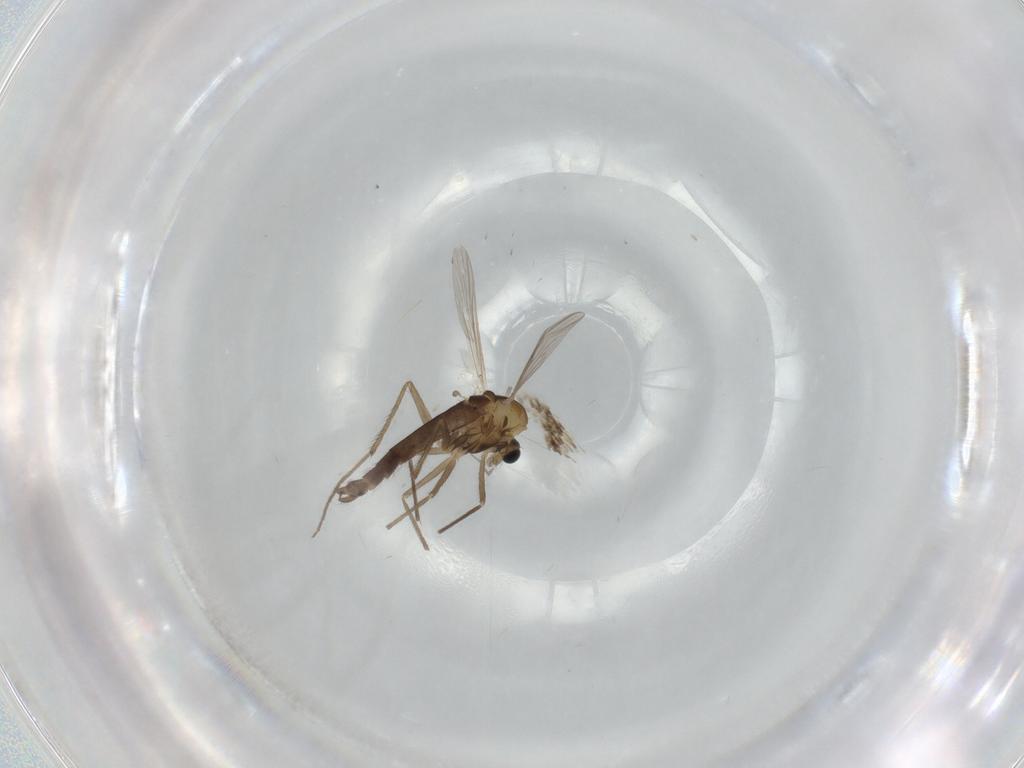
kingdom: Animalia
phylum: Arthropoda
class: Insecta
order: Diptera
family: Chironomidae
